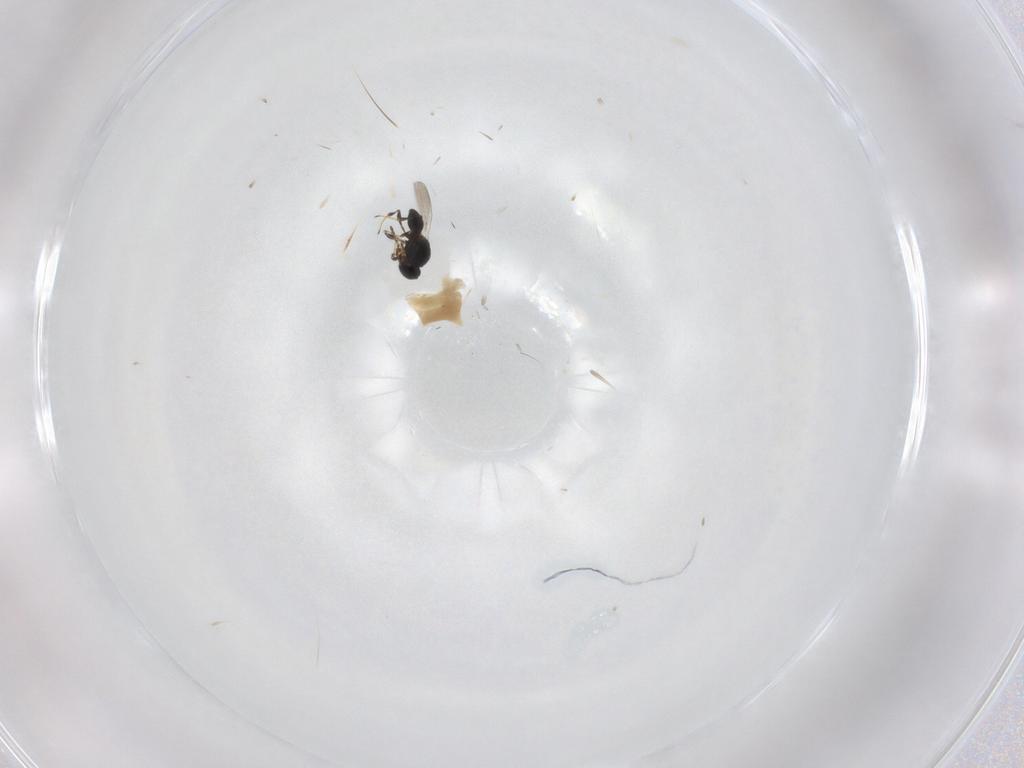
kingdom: Animalia
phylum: Arthropoda
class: Insecta
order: Hymenoptera
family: Platygastridae
